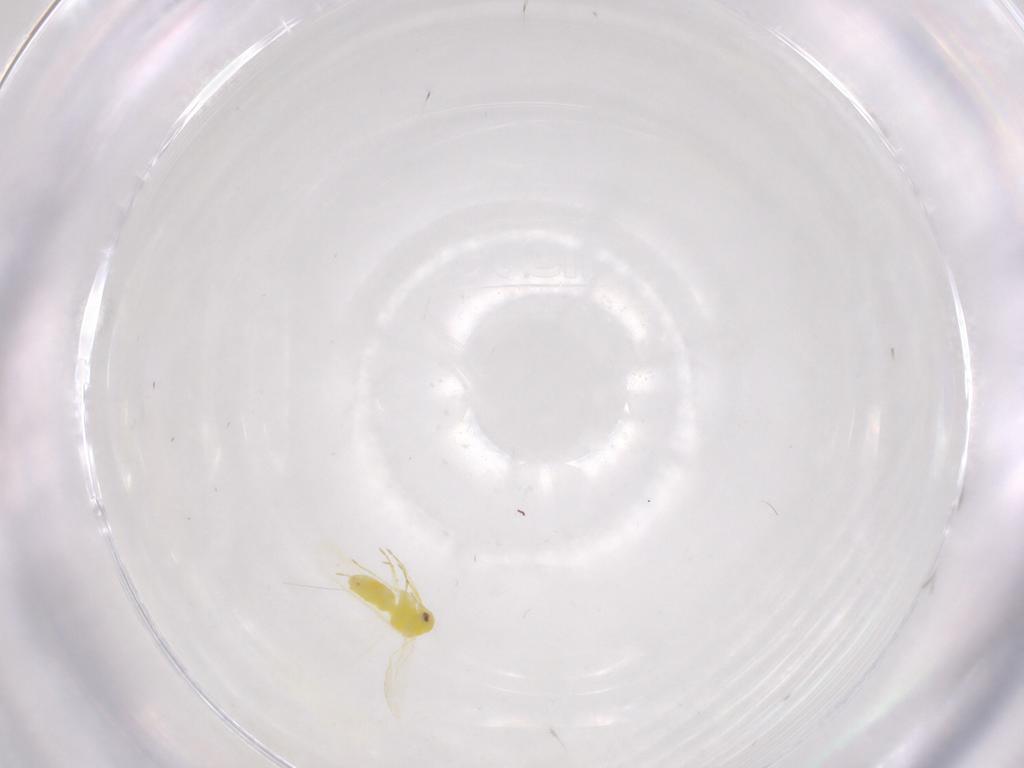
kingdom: Animalia
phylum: Arthropoda
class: Insecta
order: Hemiptera
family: Aleyrodidae
